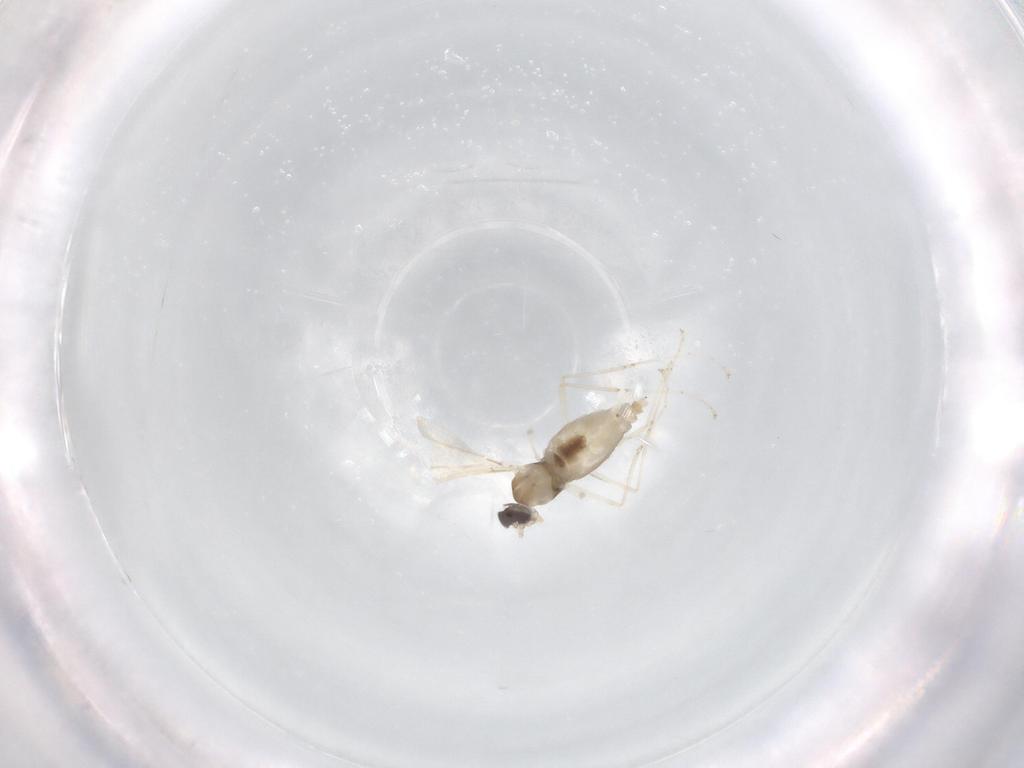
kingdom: Animalia
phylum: Arthropoda
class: Insecta
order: Diptera
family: Cecidomyiidae
